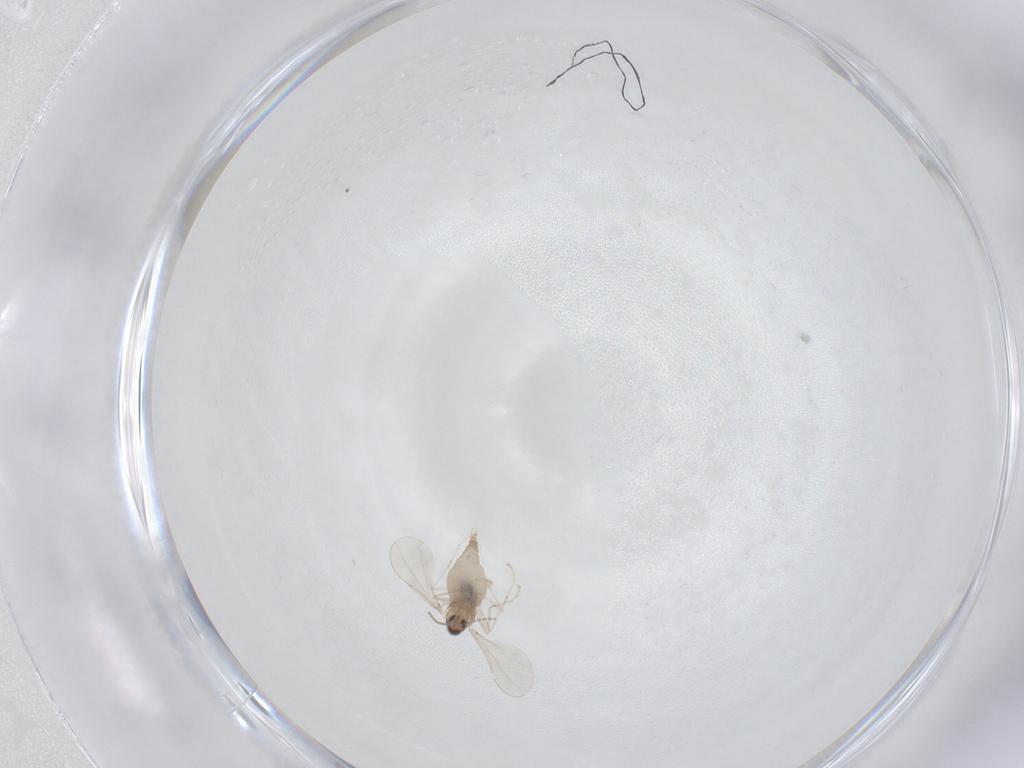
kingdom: Animalia
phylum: Arthropoda
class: Insecta
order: Diptera
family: Cecidomyiidae
